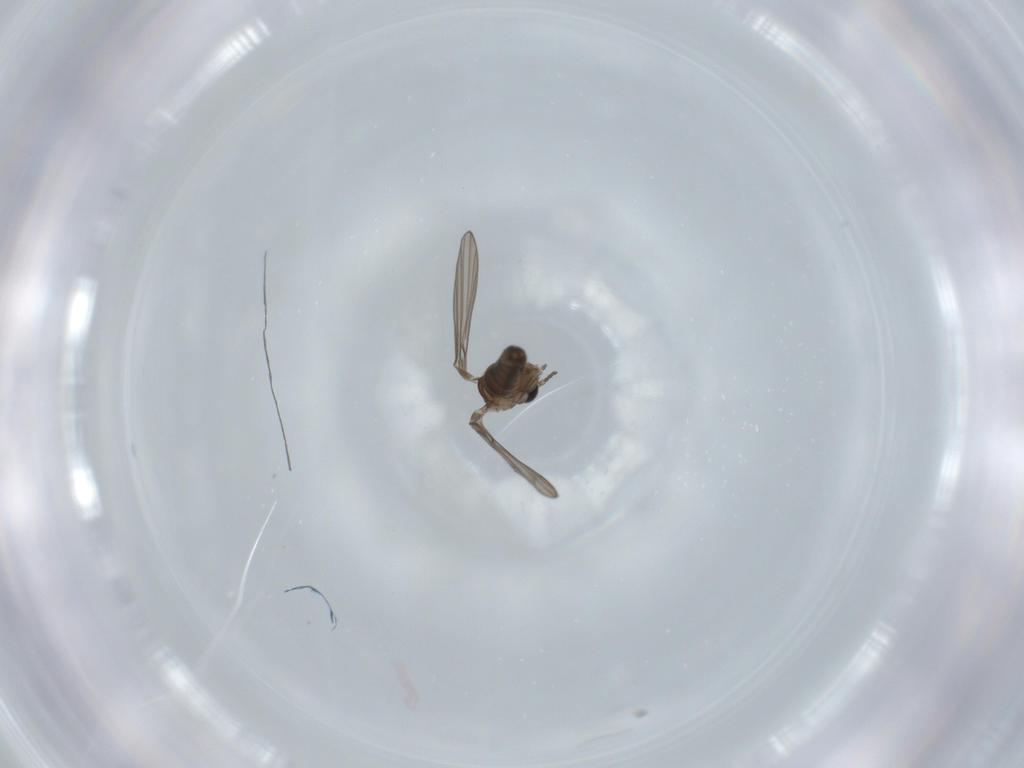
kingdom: Animalia
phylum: Arthropoda
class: Insecta
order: Diptera
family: Psychodidae
